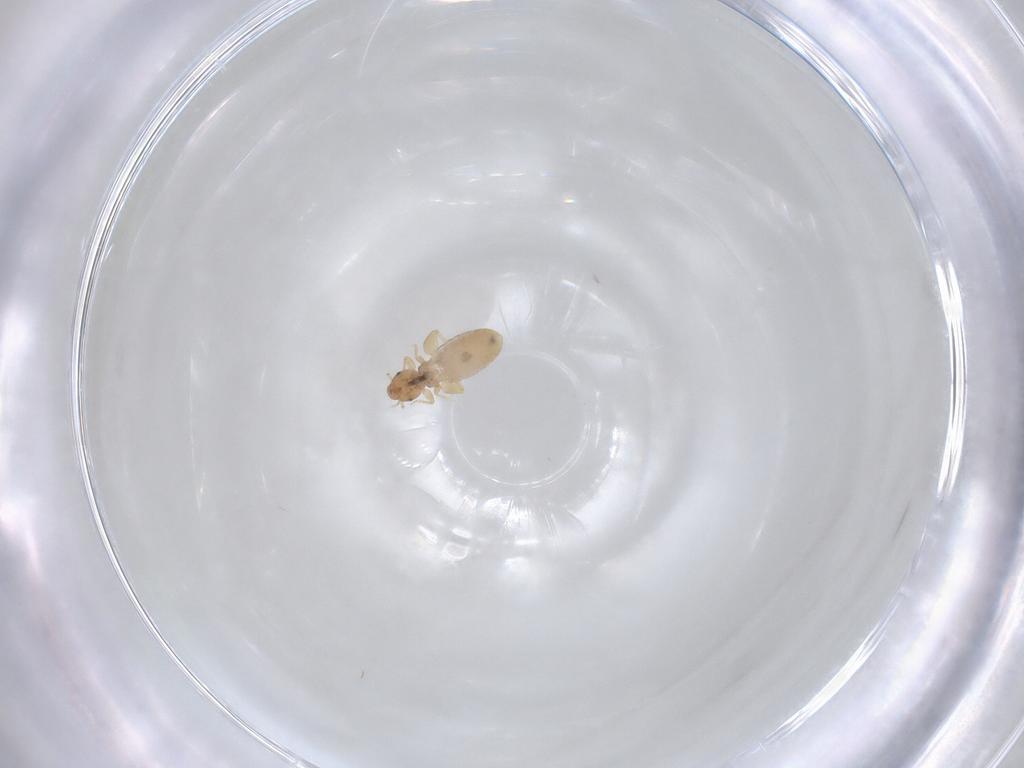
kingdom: Animalia
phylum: Arthropoda
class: Insecta
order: Psocodea
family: Liposcelididae
